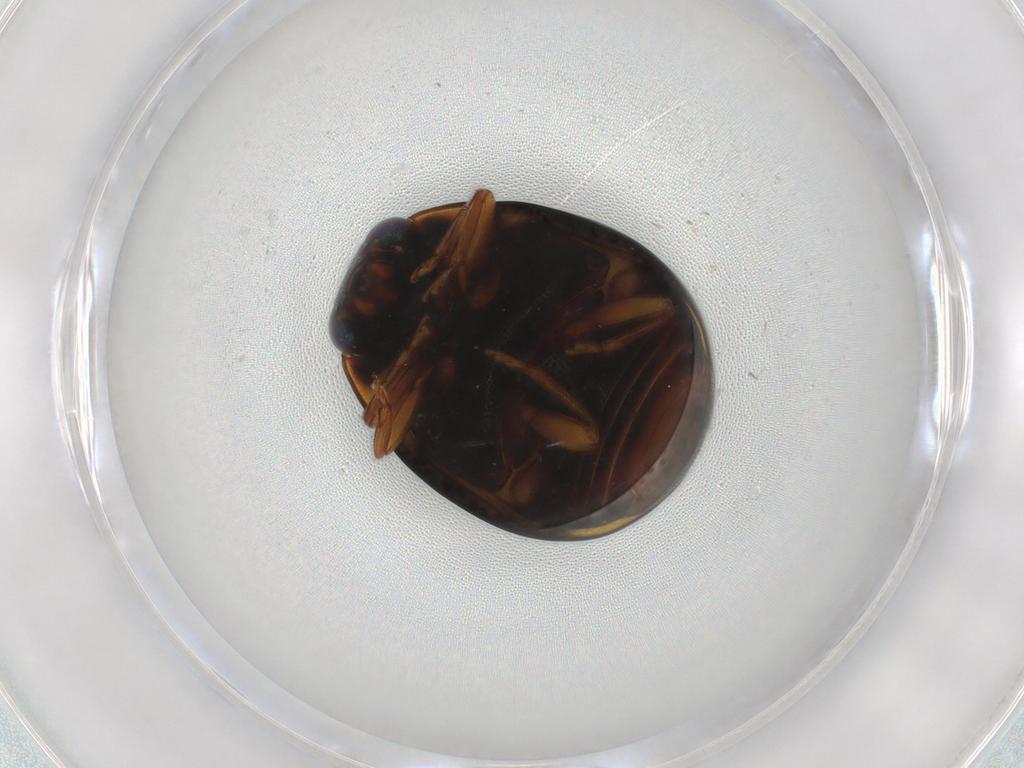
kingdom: Animalia
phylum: Arthropoda
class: Insecta
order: Coleoptera
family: Coccinellidae
